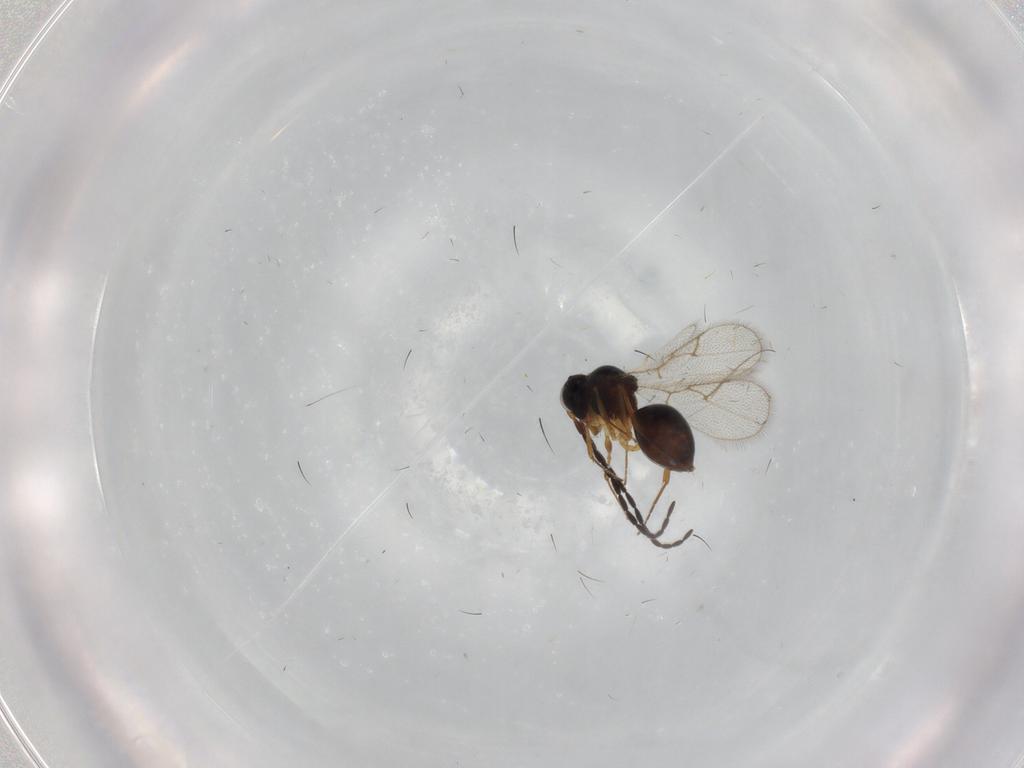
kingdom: Animalia
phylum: Arthropoda
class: Insecta
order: Hymenoptera
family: Figitidae
